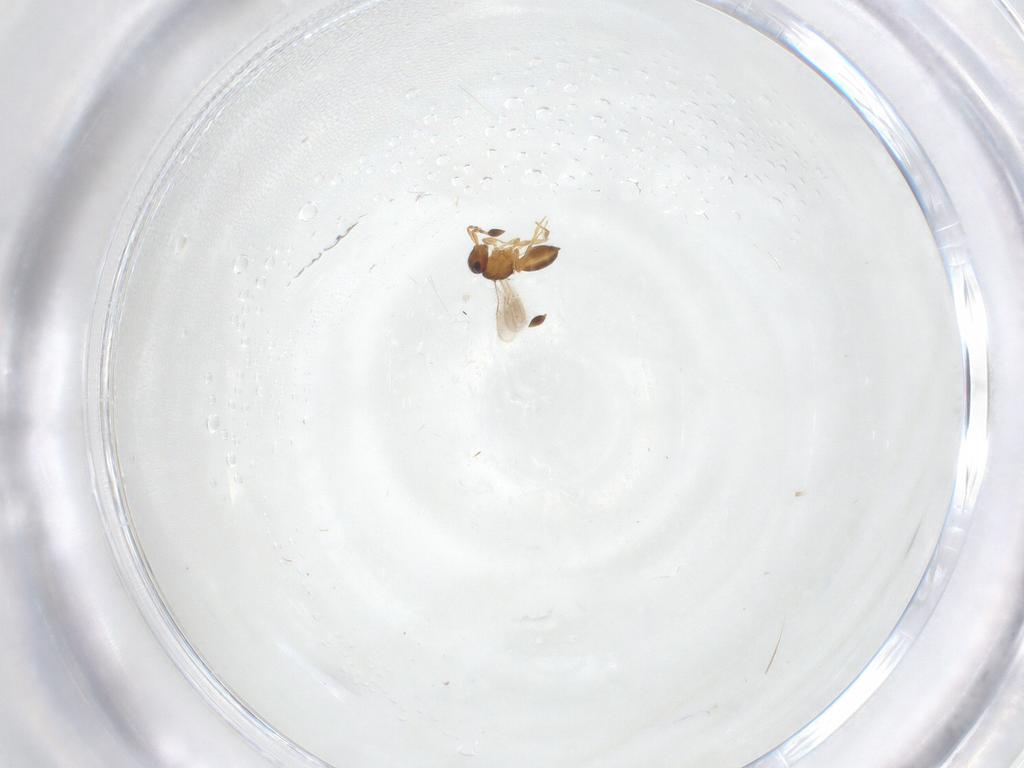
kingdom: Animalia
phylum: Arthropoda
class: Insecta
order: Hymenoptera
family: Scelionidae
